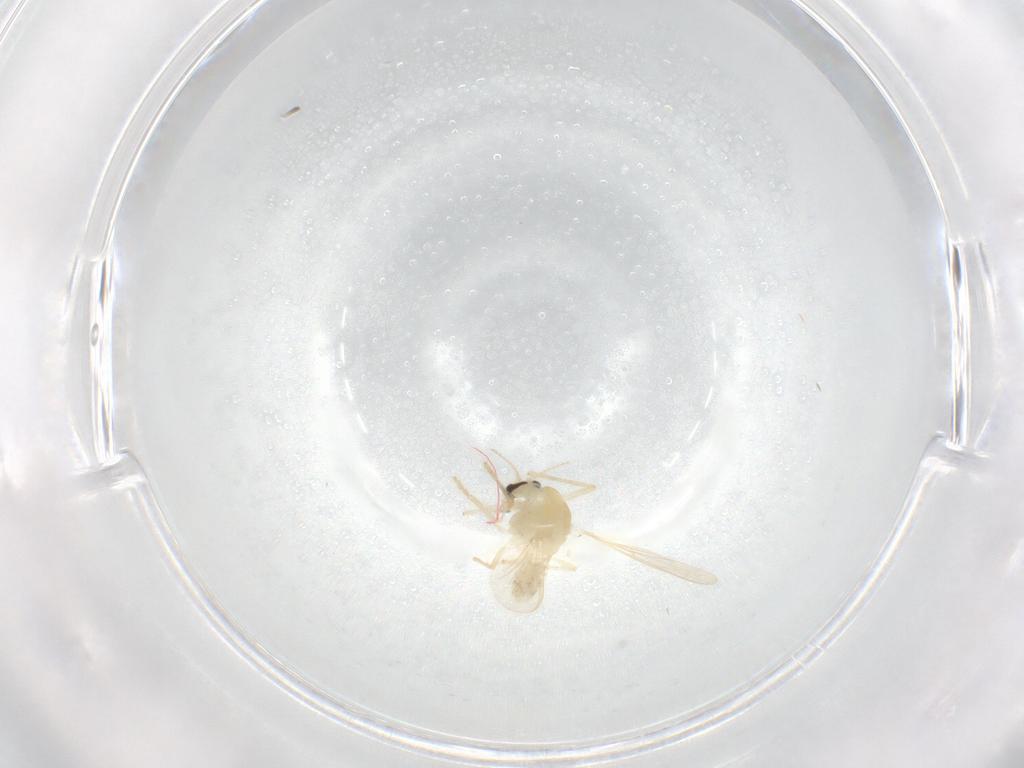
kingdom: Animalia
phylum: Arthropoda
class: Insecta
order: Diptera
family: Chironomidae
